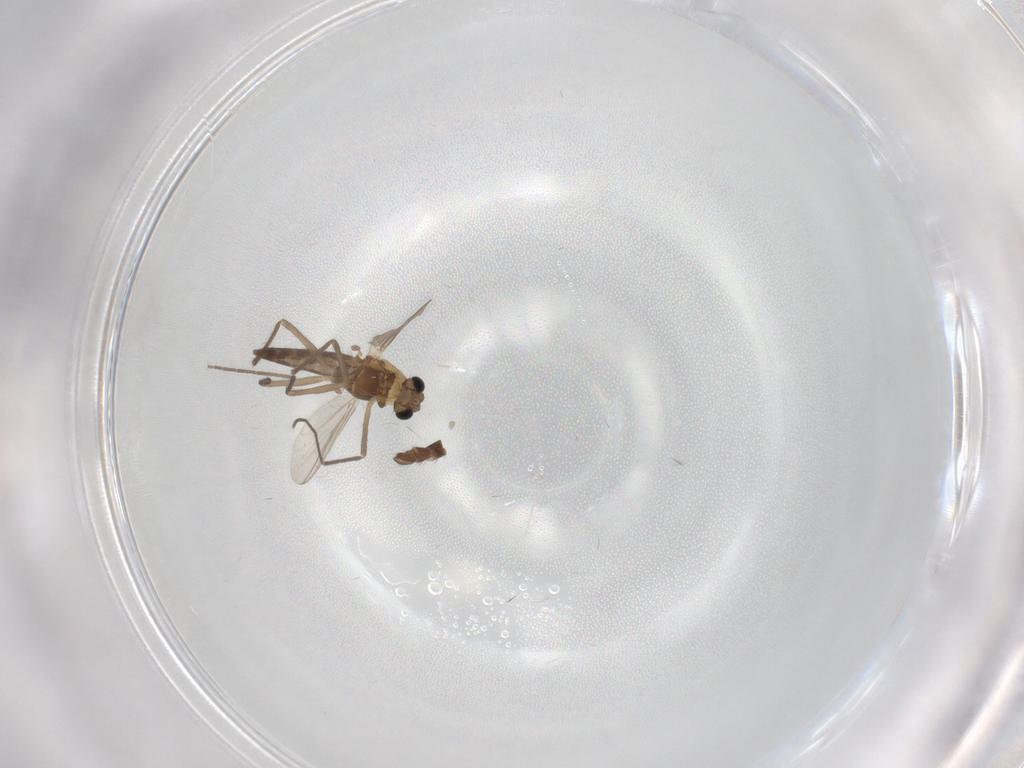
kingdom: Animalia
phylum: Arthropoda
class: Insecta
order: Diptera
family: Chironomidae
